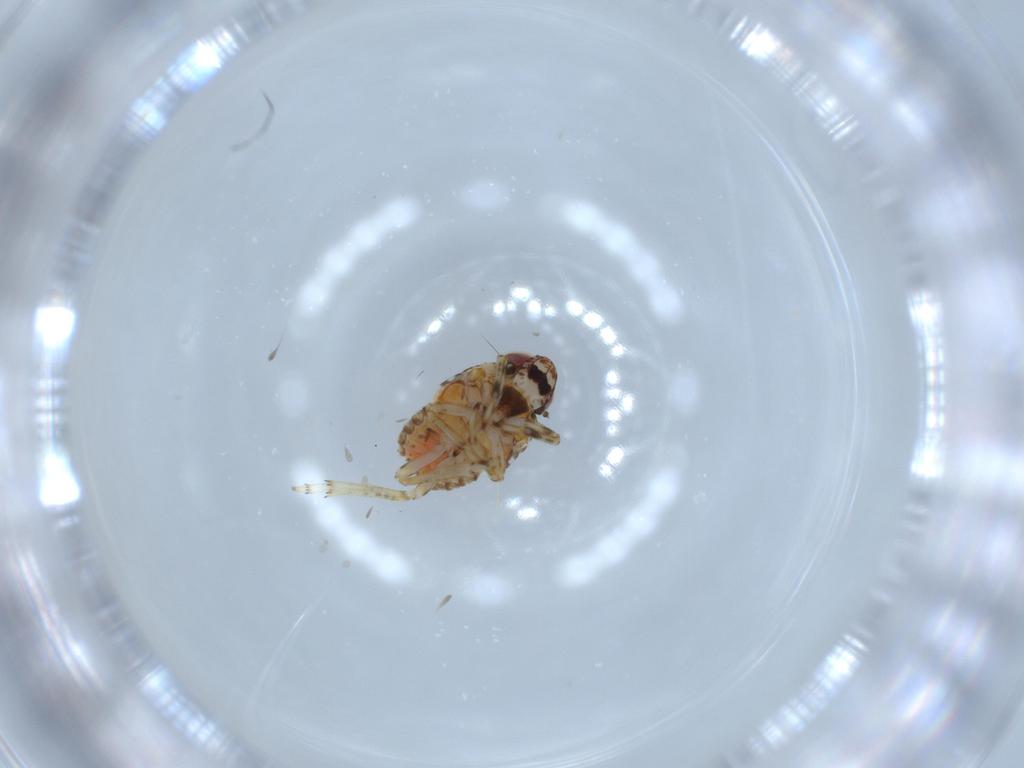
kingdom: Animalia
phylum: Arthropoda
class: Insecta
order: Hemiptera
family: Issidae
